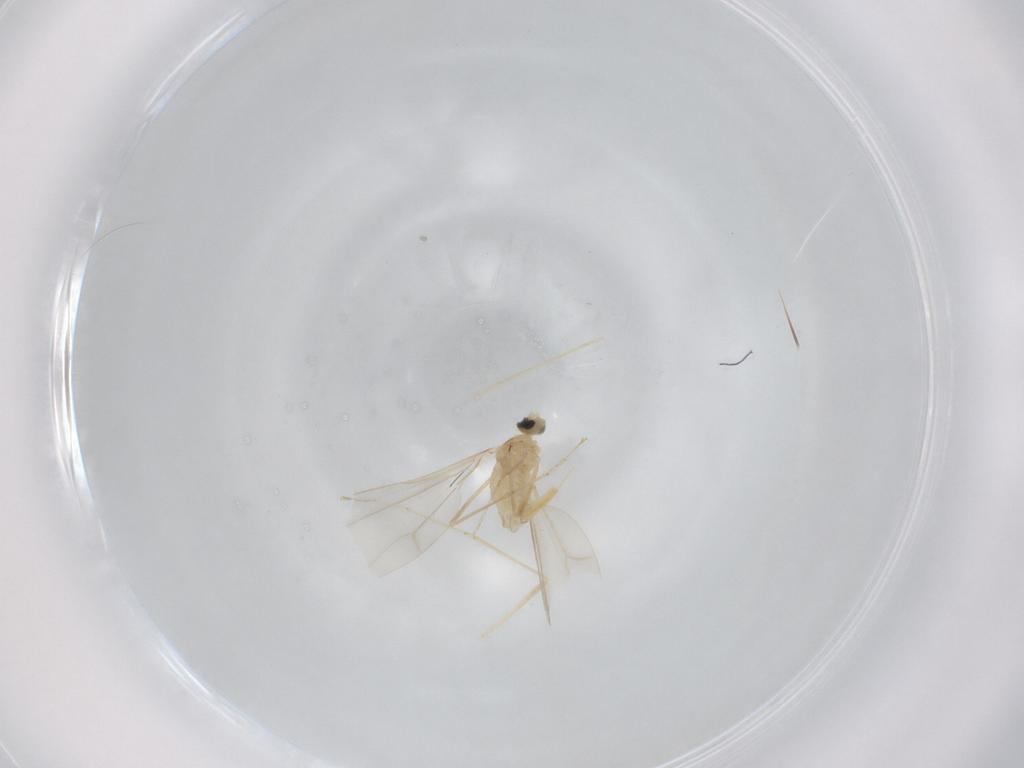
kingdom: Animalia
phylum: Arthropoda
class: Insecta
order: Diptera
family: Cecidomyiidae
